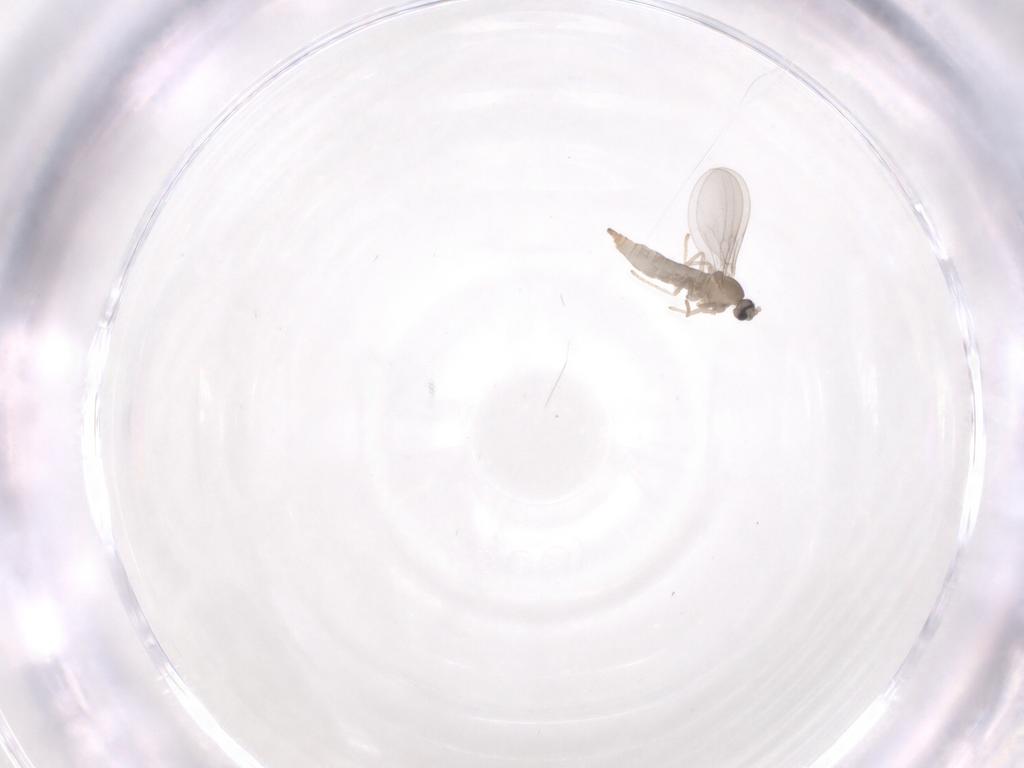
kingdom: Animalia
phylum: Arthropoda
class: Insecta
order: Diptera
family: Cecidomyiidae
